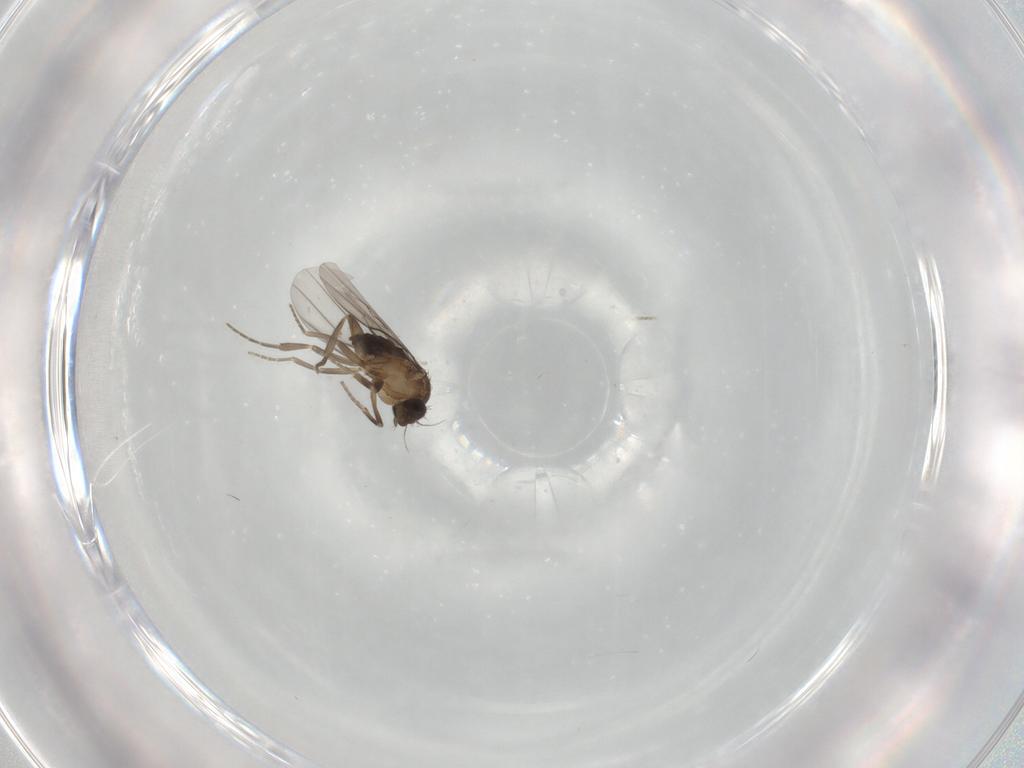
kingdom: Animalia
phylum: Arthropoda
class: Insecta
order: Diptera
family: Phoridae
